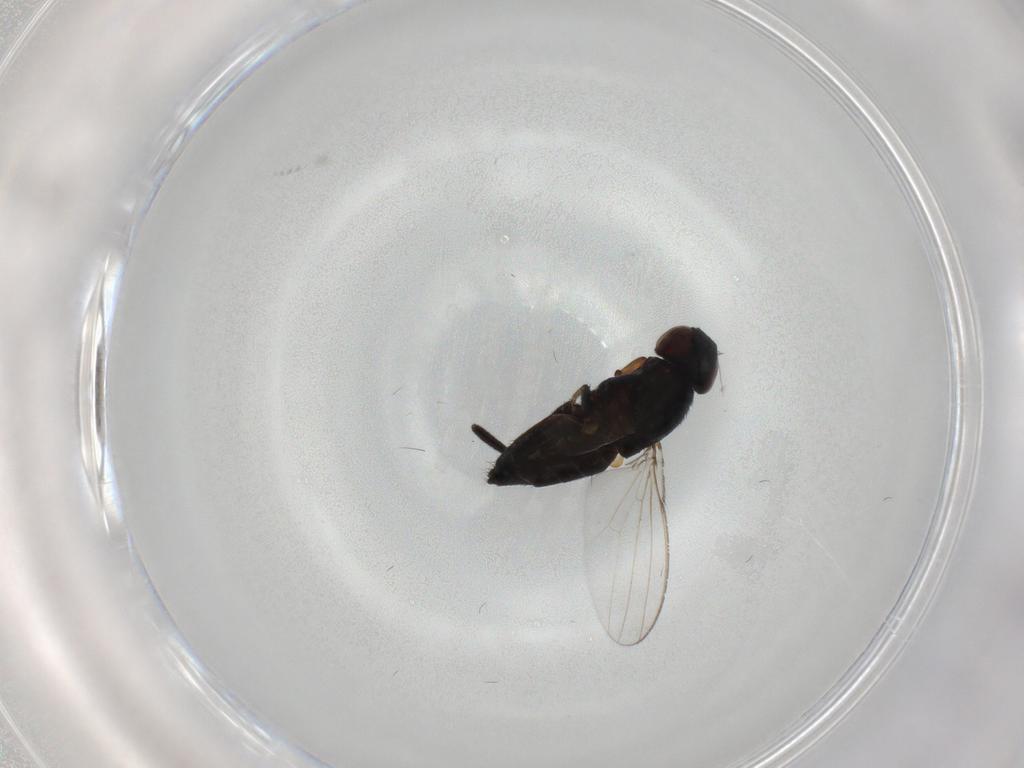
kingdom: Animalia
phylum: Arthropoda
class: Insecta
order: Diptera
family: Milichiidae
